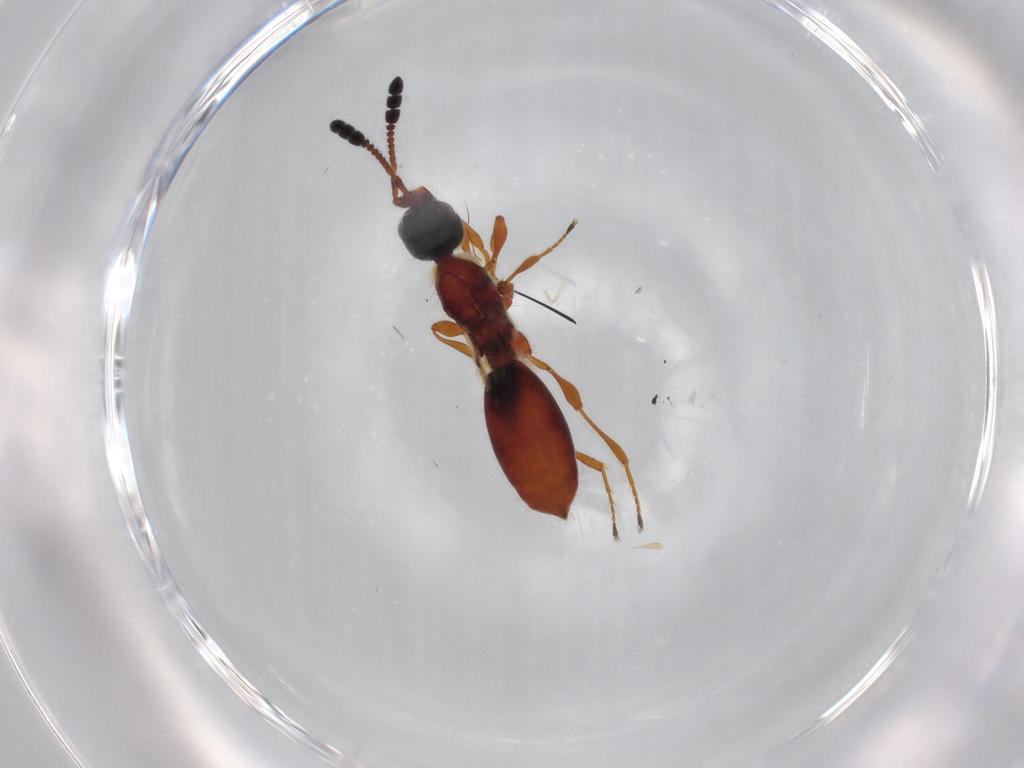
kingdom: Animalia
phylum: Arthropoda
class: Insecta
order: Hymenoptera
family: Diapriidae
